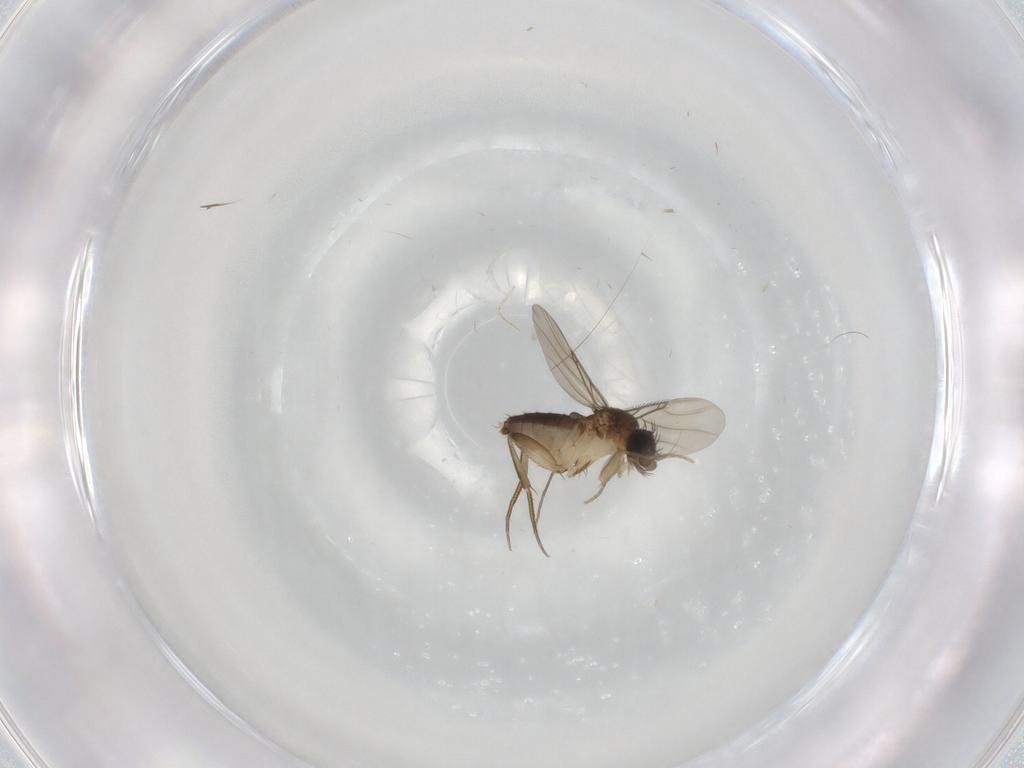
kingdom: Animalia
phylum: Arthropoda
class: Insecta
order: Diptera
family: Phoridae
